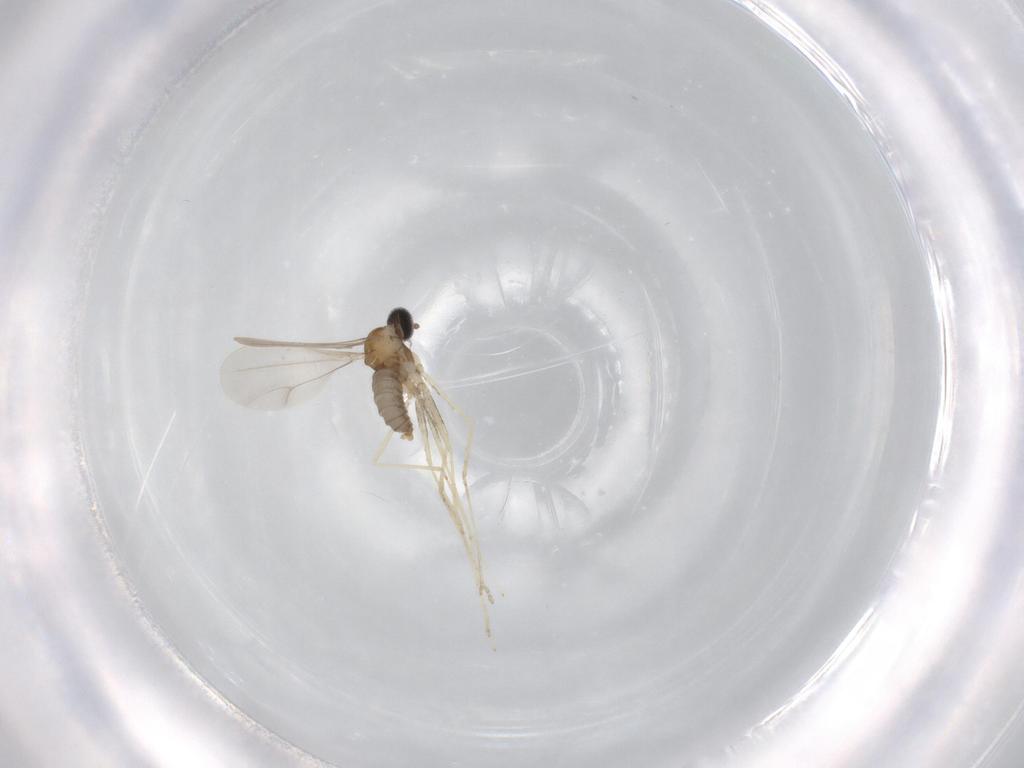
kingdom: Animalia
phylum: Arthropoda
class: Insecta
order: Diptera
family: Cecidomyiidae
